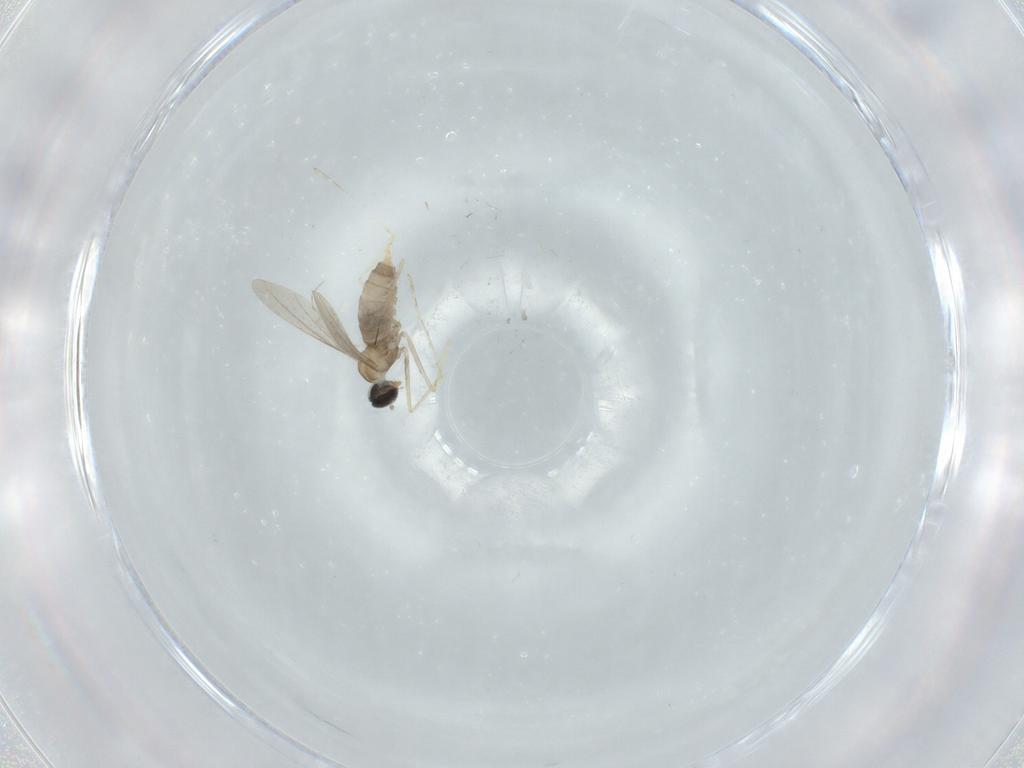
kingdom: Animalia
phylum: Arthropoda
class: Insecta
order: Diptera
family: Cecidomyiidae
